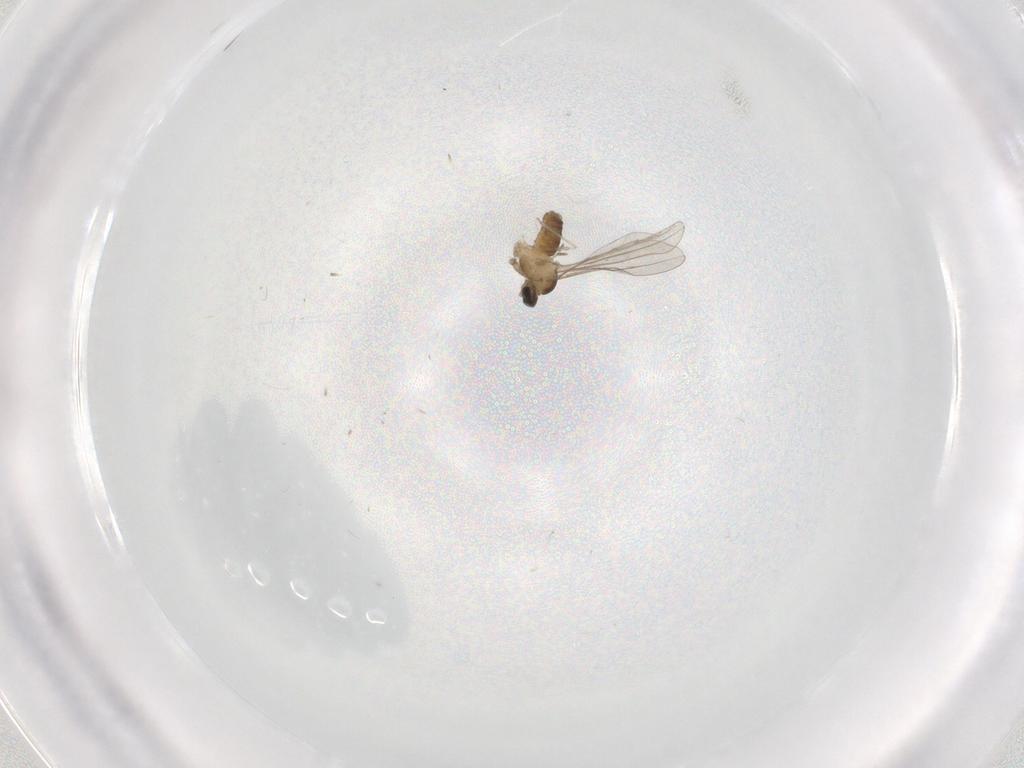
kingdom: Animalia
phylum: Arthropoda
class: Insecta
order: Diptera
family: Cecidomyiidae
